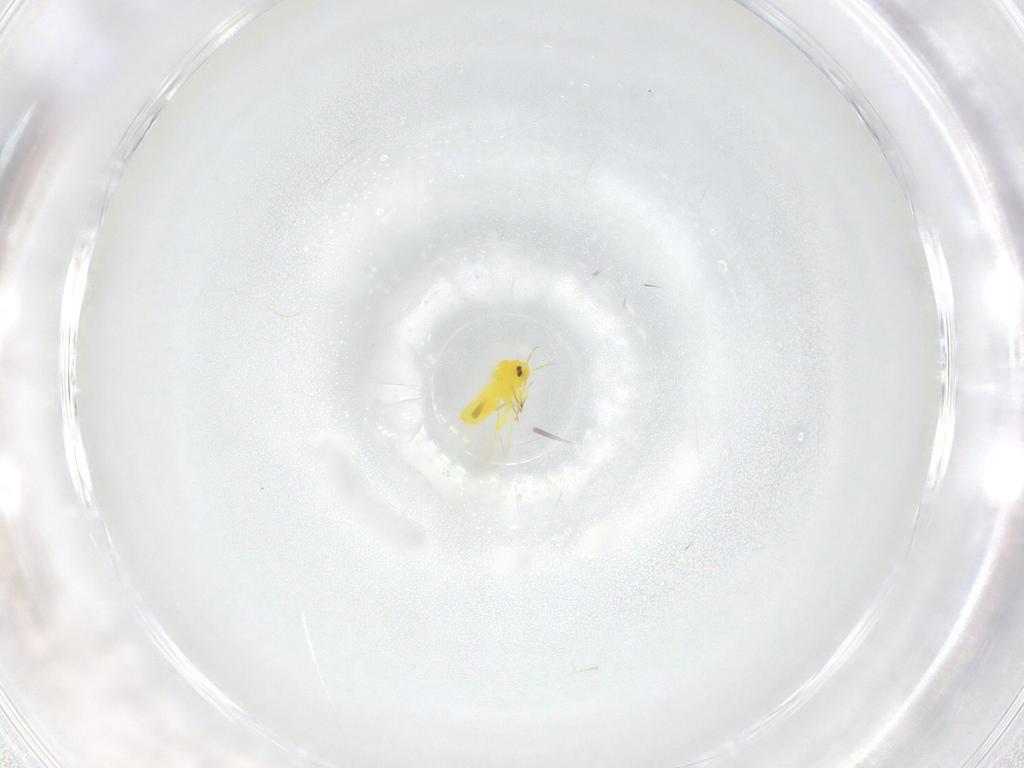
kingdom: Animalia
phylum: Arthropoda
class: Insecta
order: Hemiptera
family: Aleyrodidae
